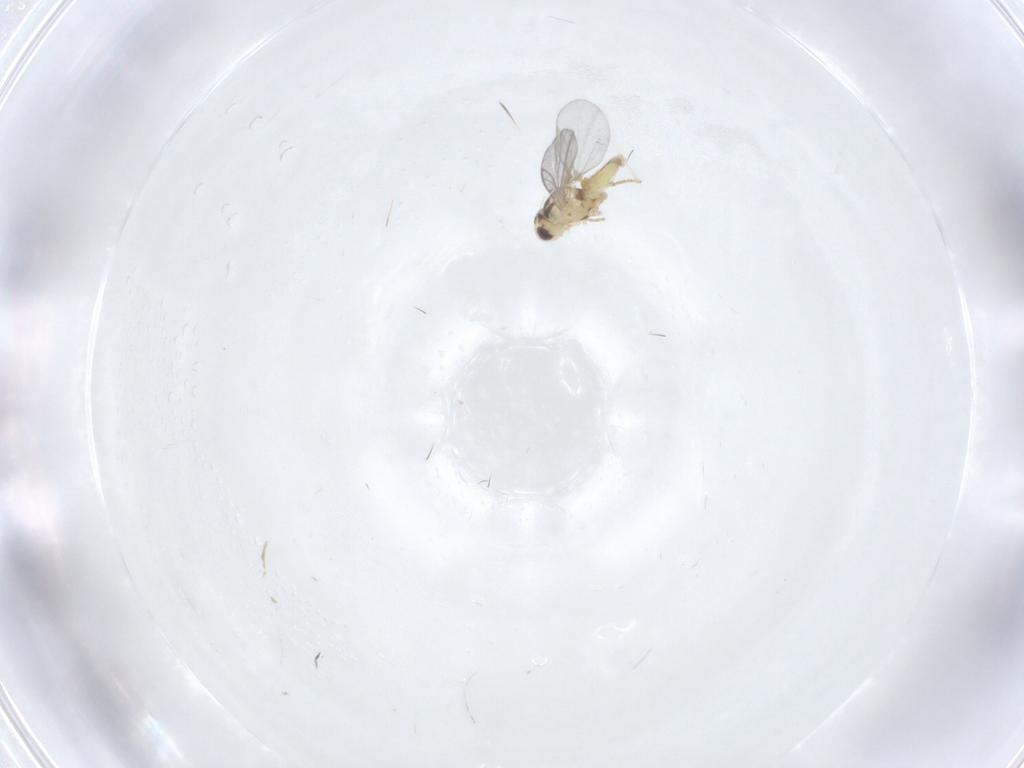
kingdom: Animalia
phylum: Arthropoda
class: Insecta
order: Diptera
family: Agromyzidae
